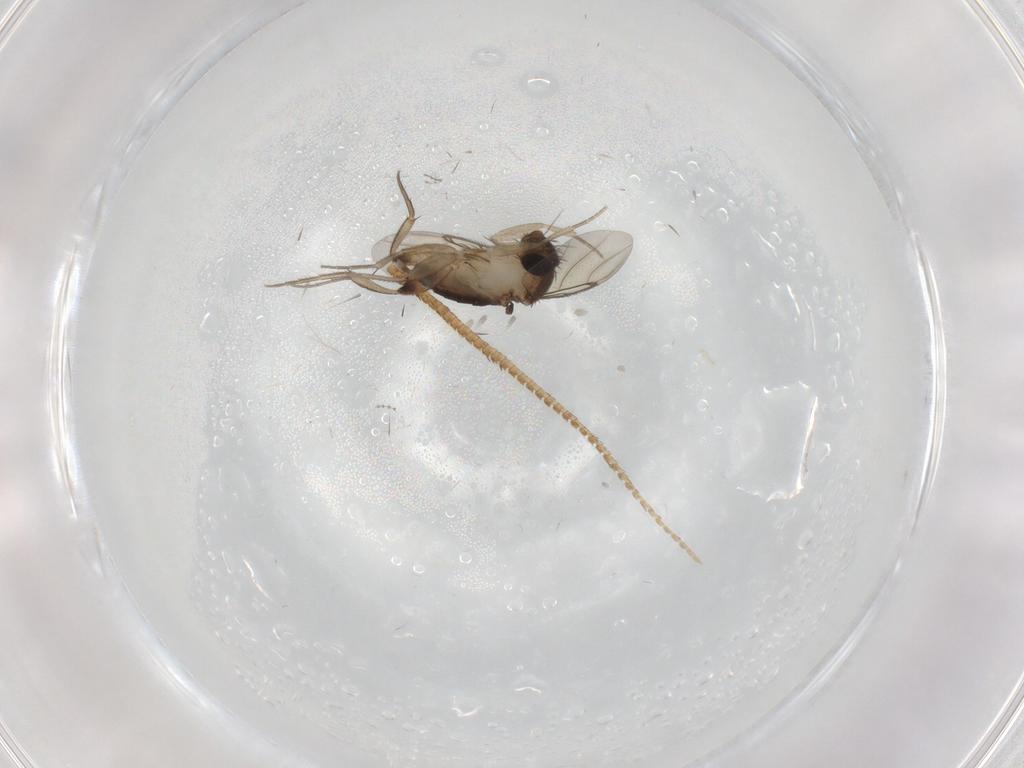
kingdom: Animalia
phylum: Arthropoda
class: Insecta
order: Diptera
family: Phoridae
